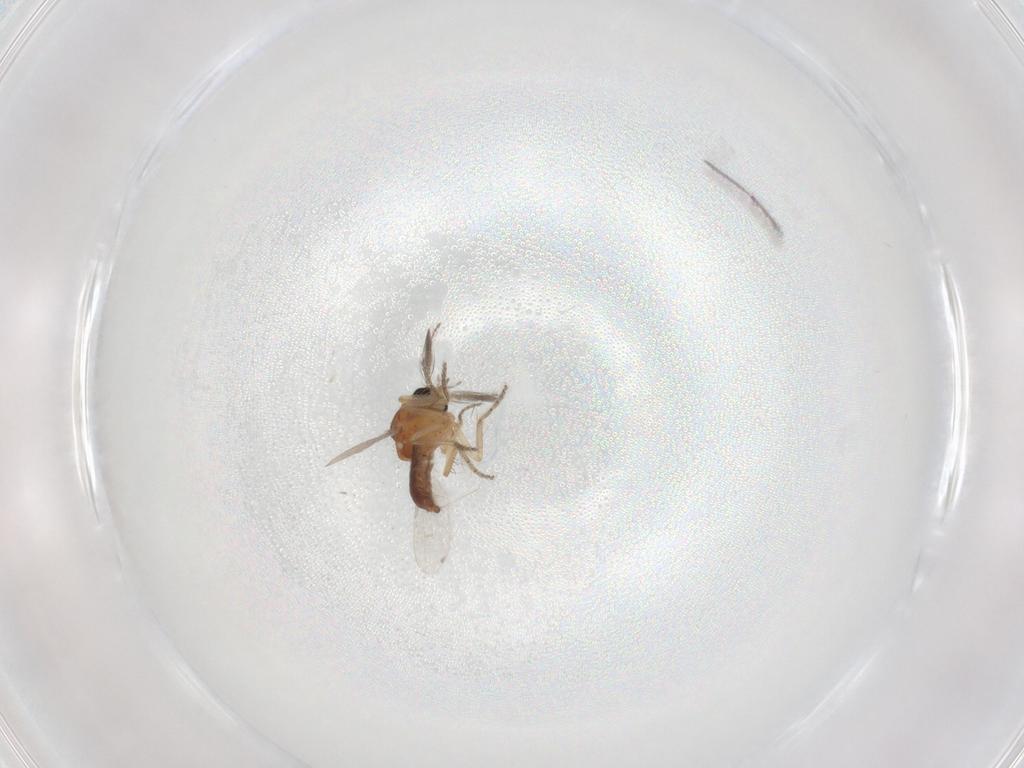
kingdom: Animalia
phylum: Arthropoda
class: Insecta
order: Diptera
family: Ceratopogonidae
